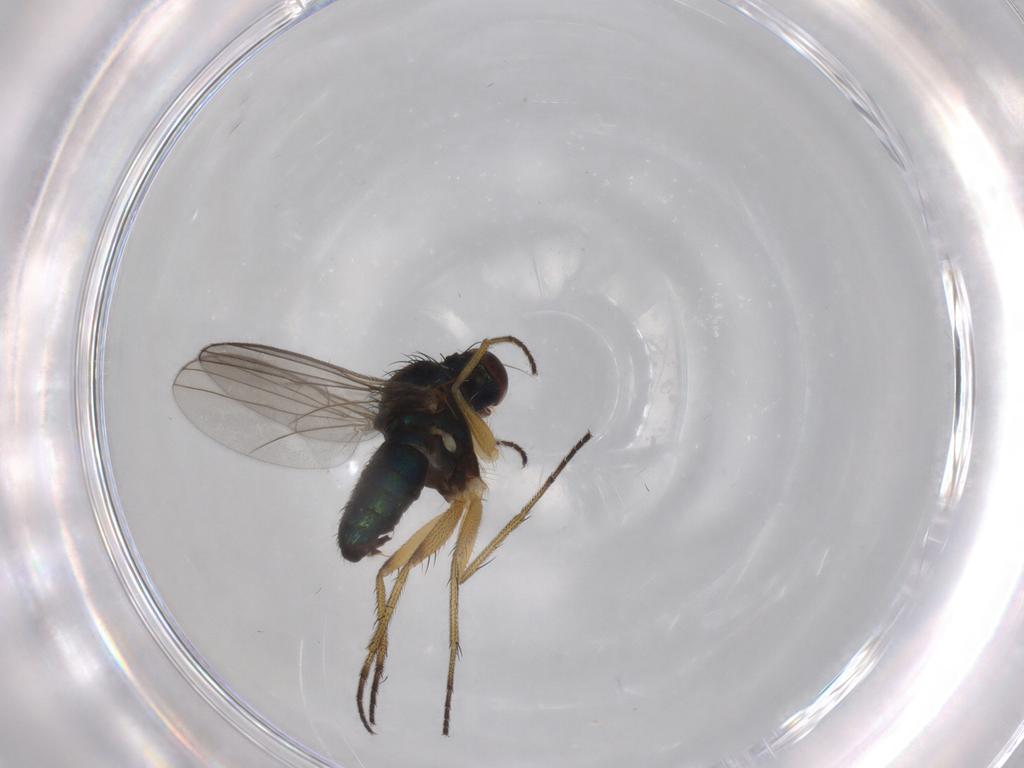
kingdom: Animalia
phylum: Arthropoda
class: Insecta
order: Diptera
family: Dolichopodidae
